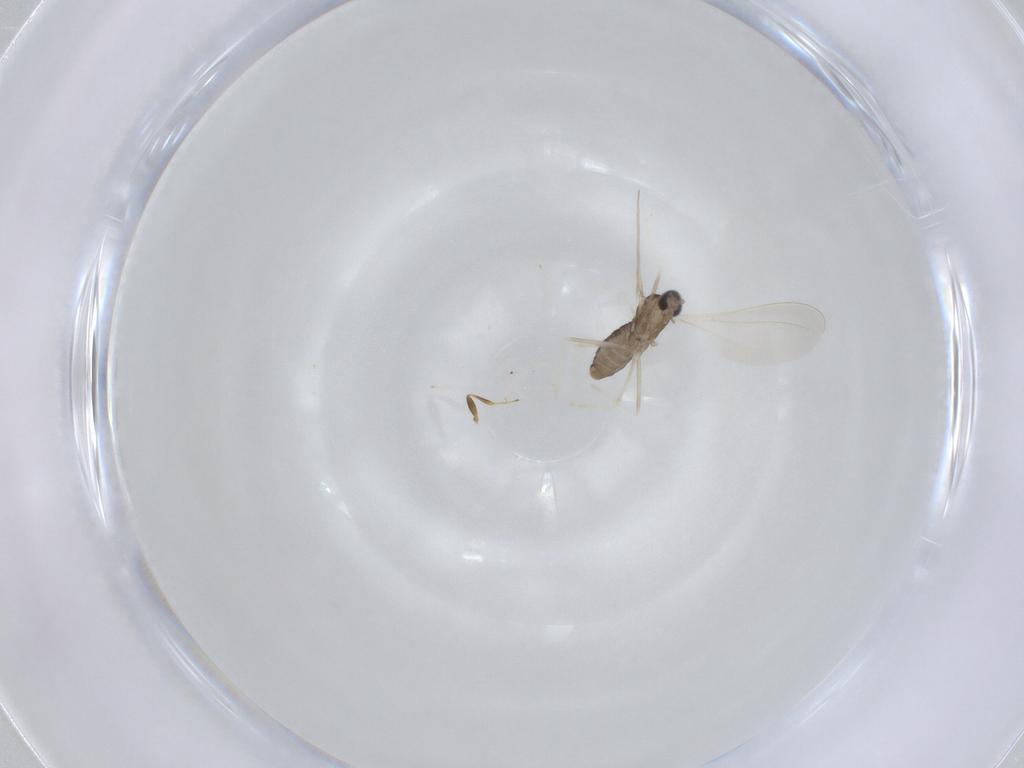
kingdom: Animalia
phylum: Arthropoda
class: Insecta
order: Diptera
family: Cecidomyiidae
